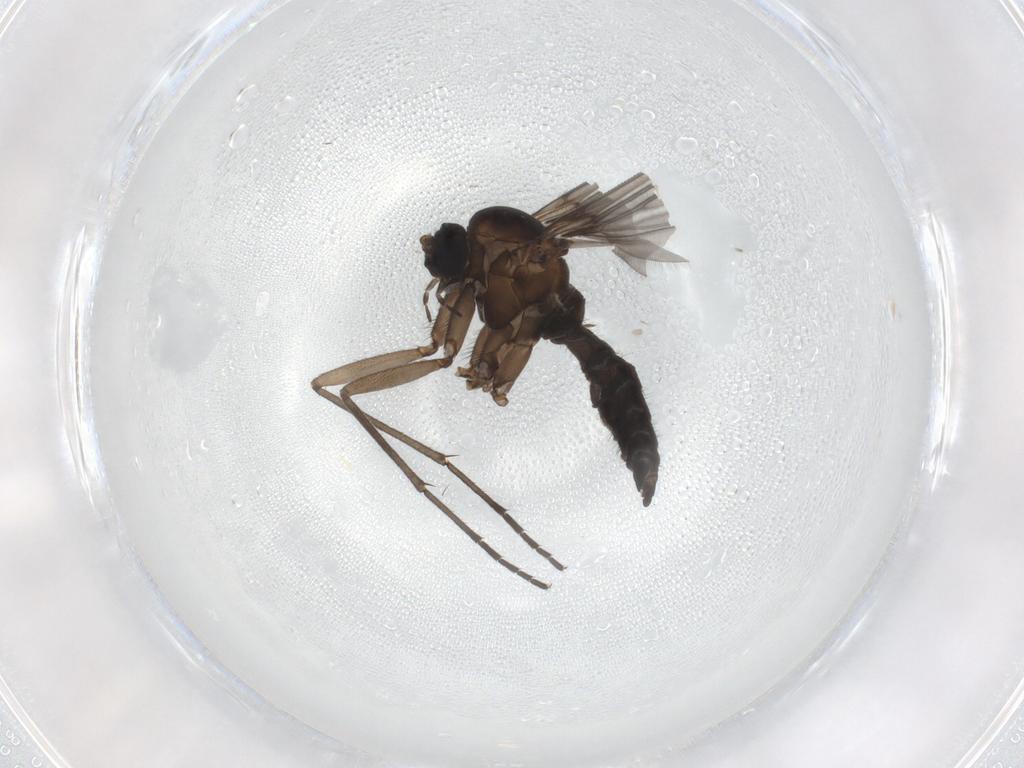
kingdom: Animalia
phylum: Arthropoda
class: Insecta
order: Diptera
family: Sciaridae
